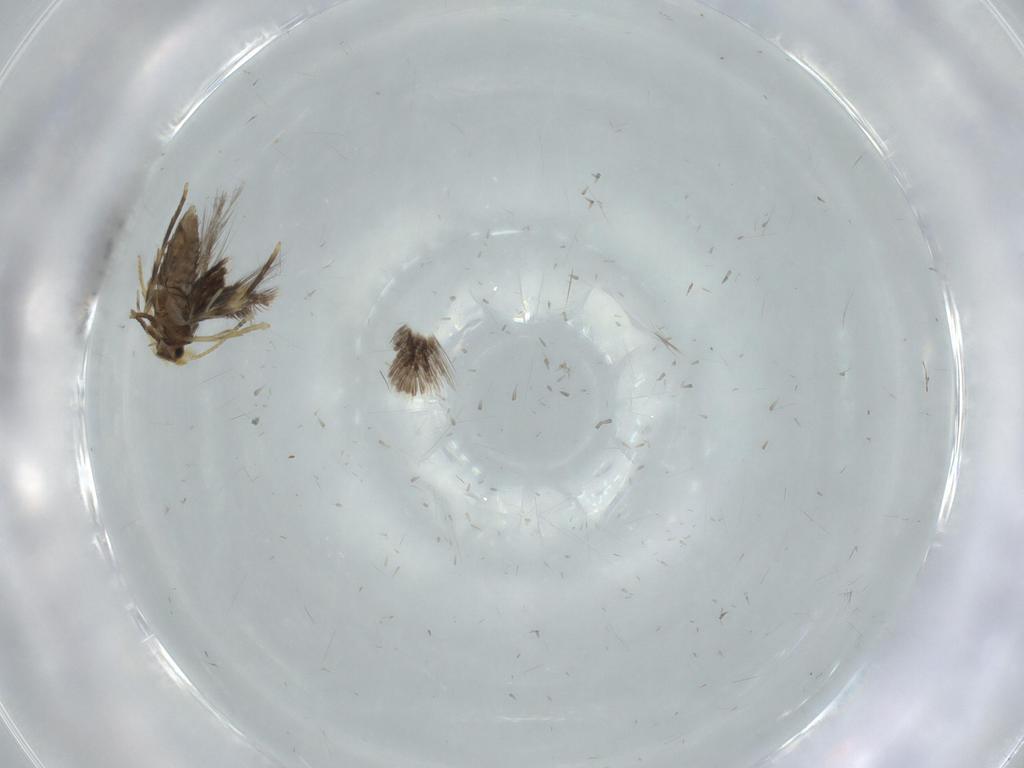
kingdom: Animalia
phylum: Arthropoda
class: Insecta
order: Lepidoptera
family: Nepticulidae
